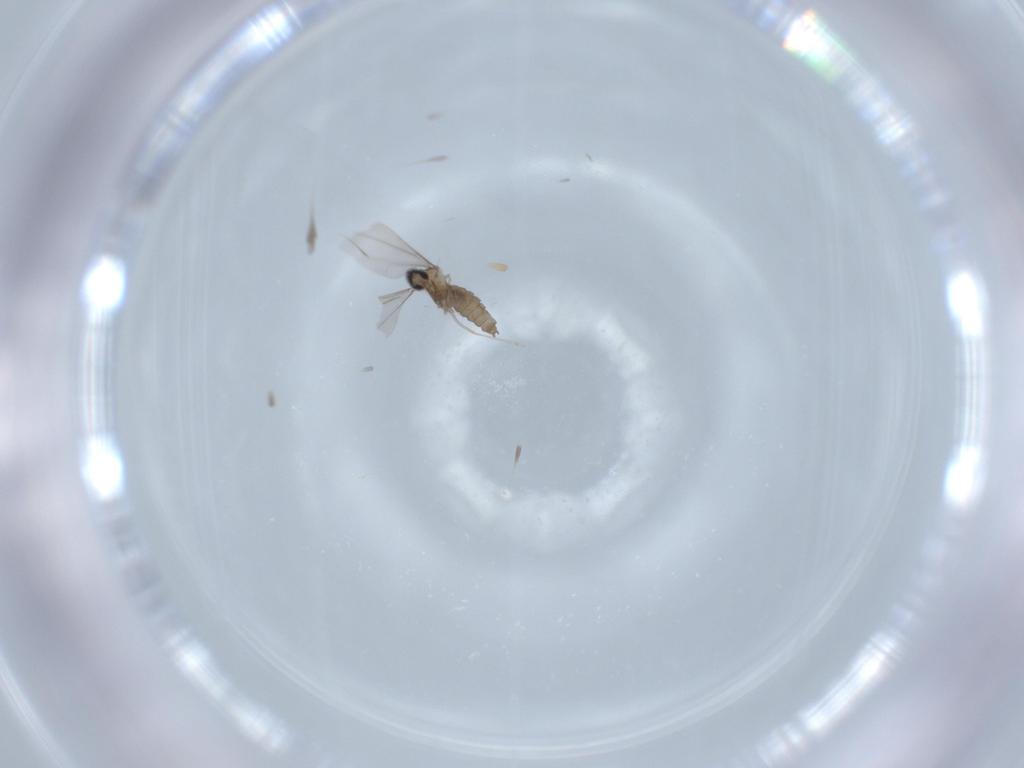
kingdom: Animalia
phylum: Arthropoda
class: Insecta
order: Diptera
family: Cecidomyiidae
